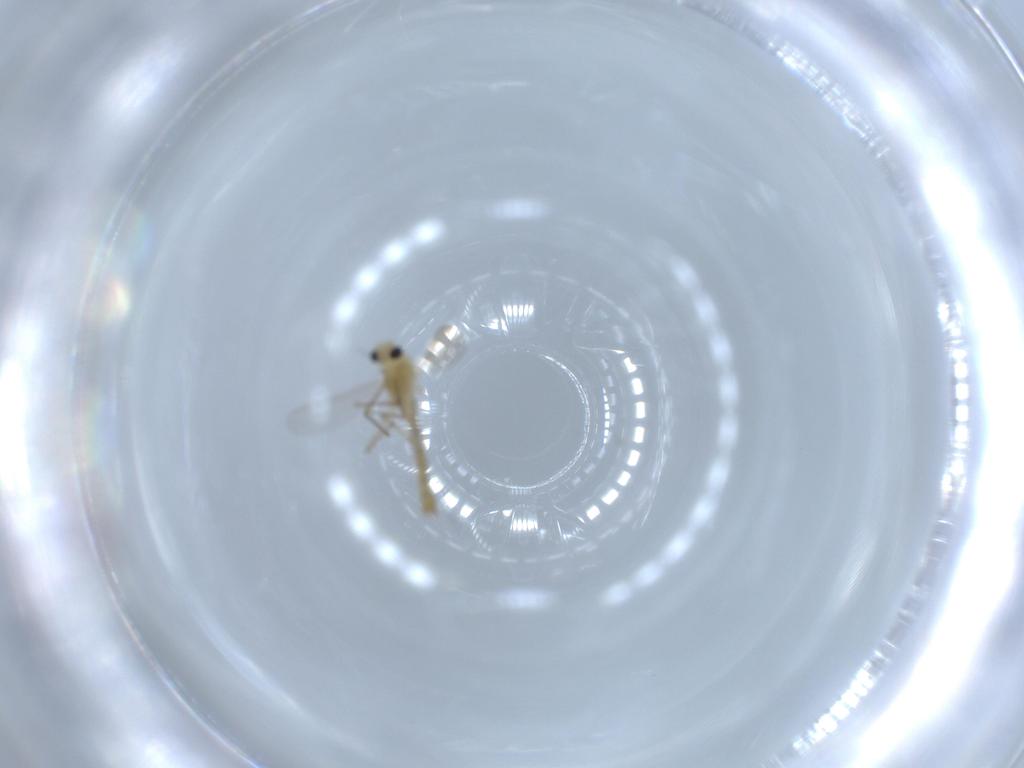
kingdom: Animalia
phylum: Arthropoda
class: Insecta
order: Diptera
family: Chironomidae
